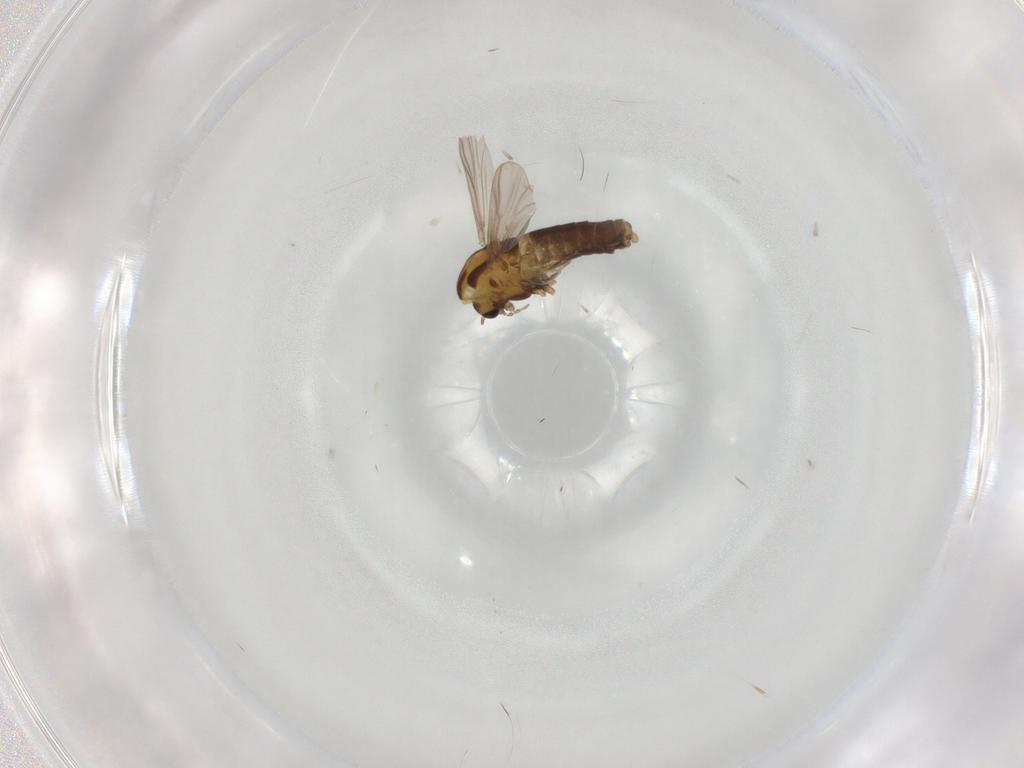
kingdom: Animalia
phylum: Arthropoda
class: Insecta
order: Diptera
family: Chironomidae
